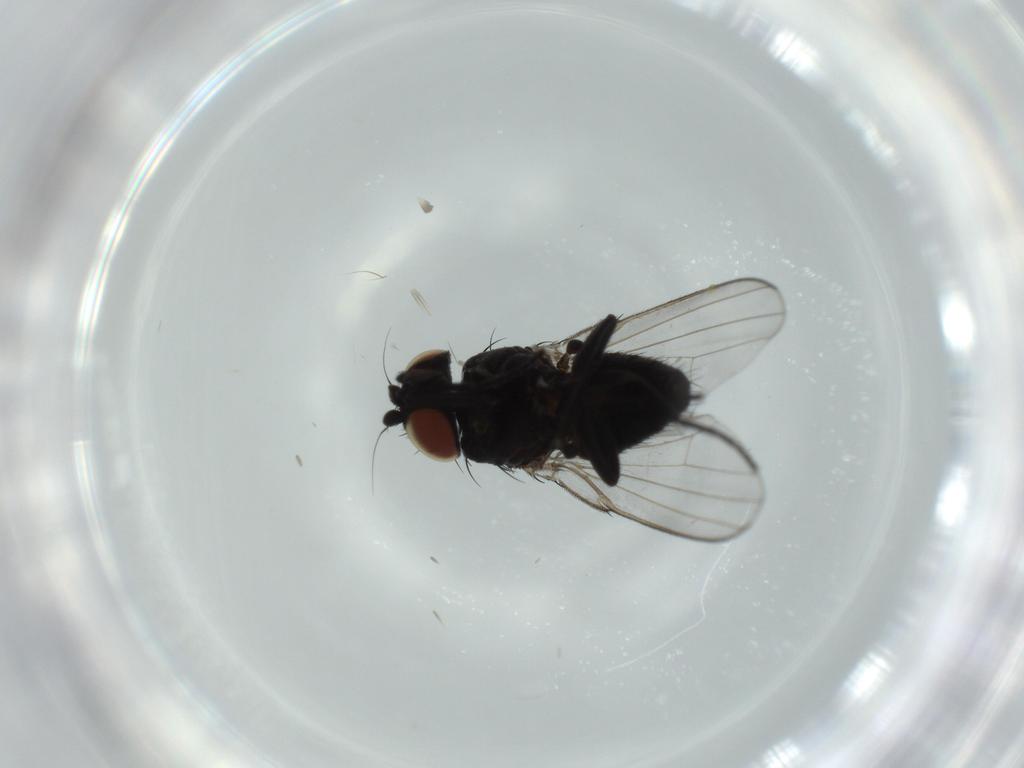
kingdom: Animalia
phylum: Arthropoda
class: Insecta
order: Diptera
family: Milichiidae
